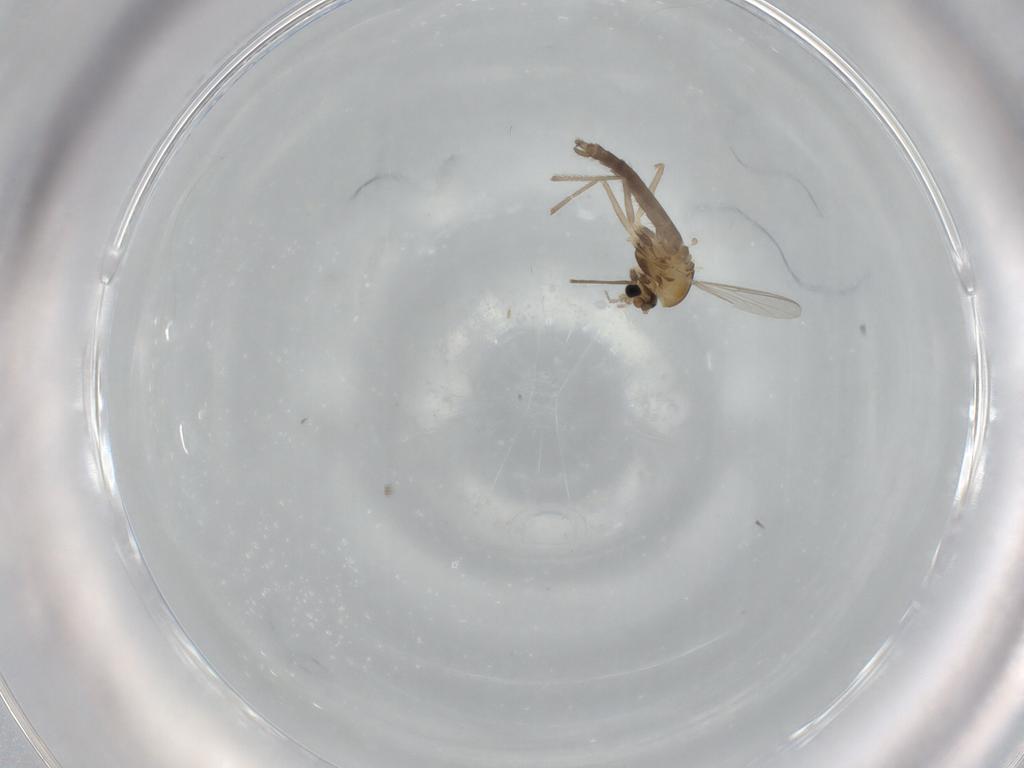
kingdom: Animalia
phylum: Arthropoda
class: Insecta
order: Diptera
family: Chironomidae
